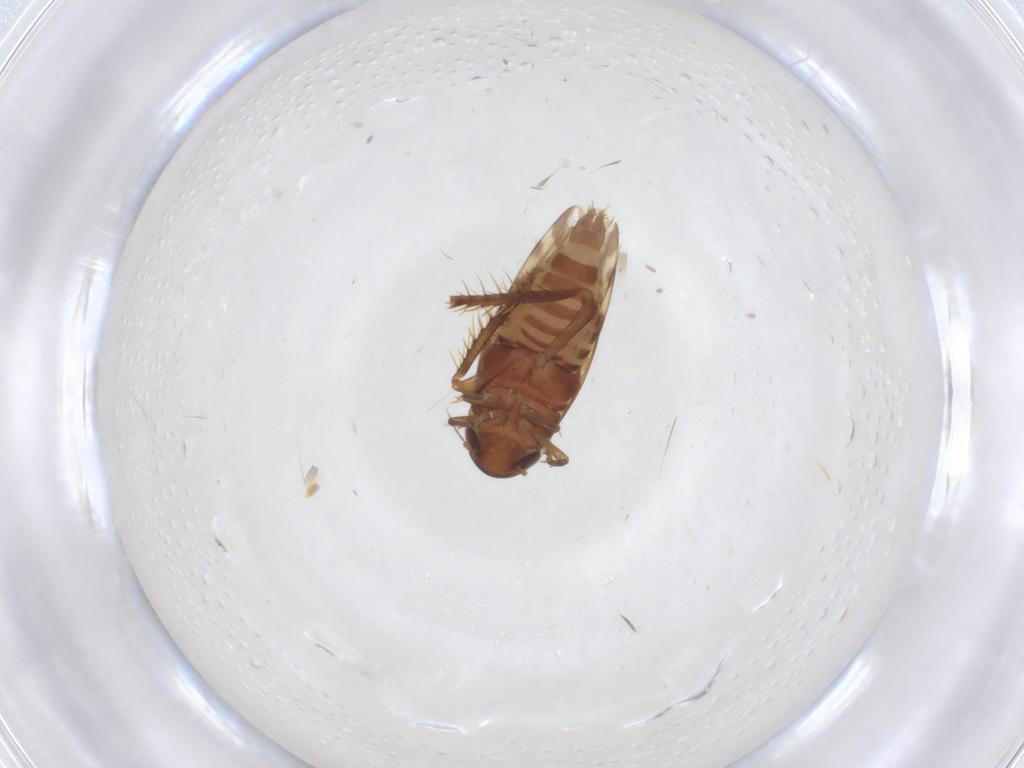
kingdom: Animalia
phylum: Arthropoda
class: Insecta
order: Hemiptera
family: Cicadellidae
